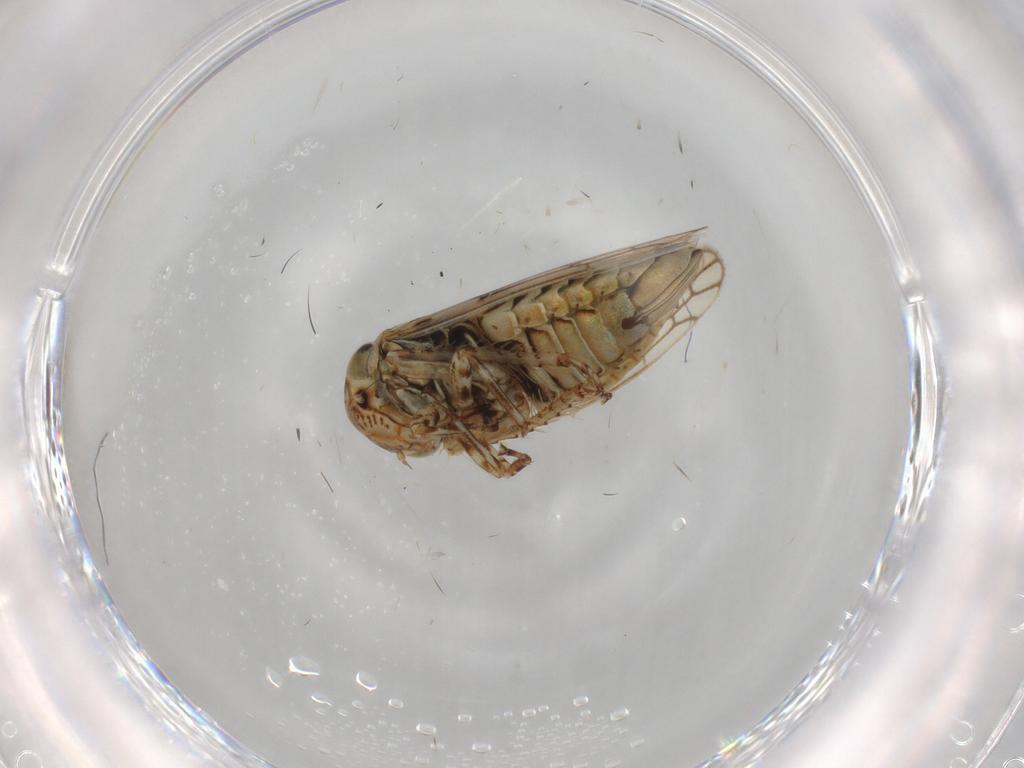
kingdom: Animalia
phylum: Arthropoda
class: Insecta
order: Hemiptera
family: Cicadellidae
